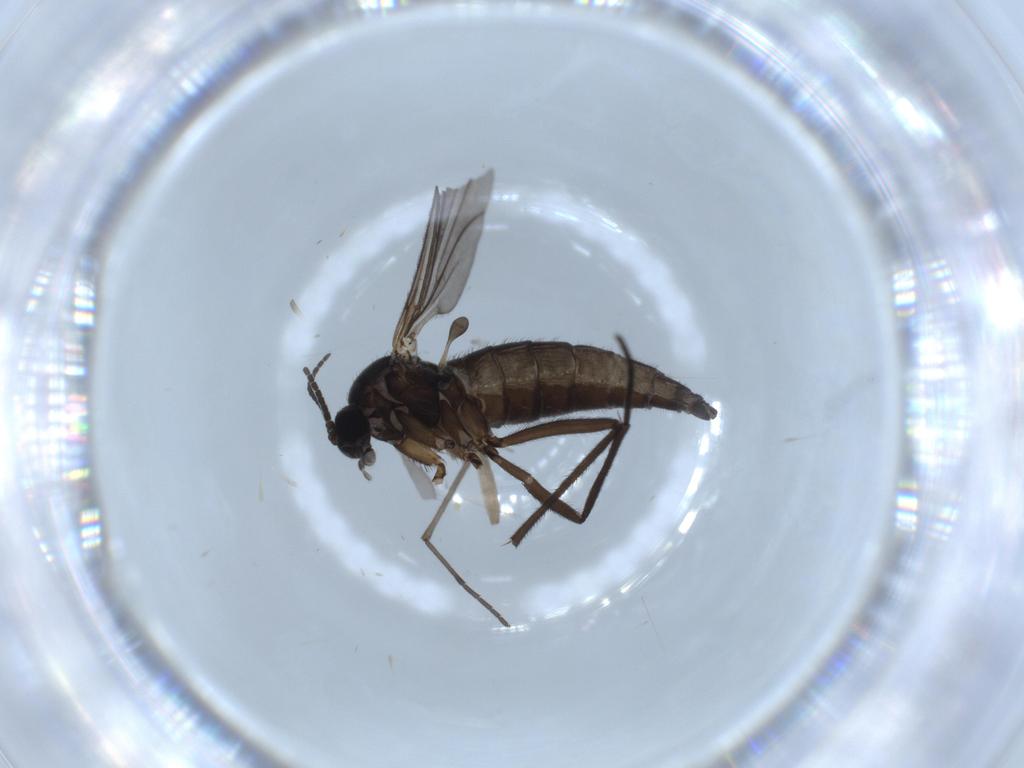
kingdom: Animalia
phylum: Arthropoda
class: Insecta
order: Diptera
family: Sciaridae
